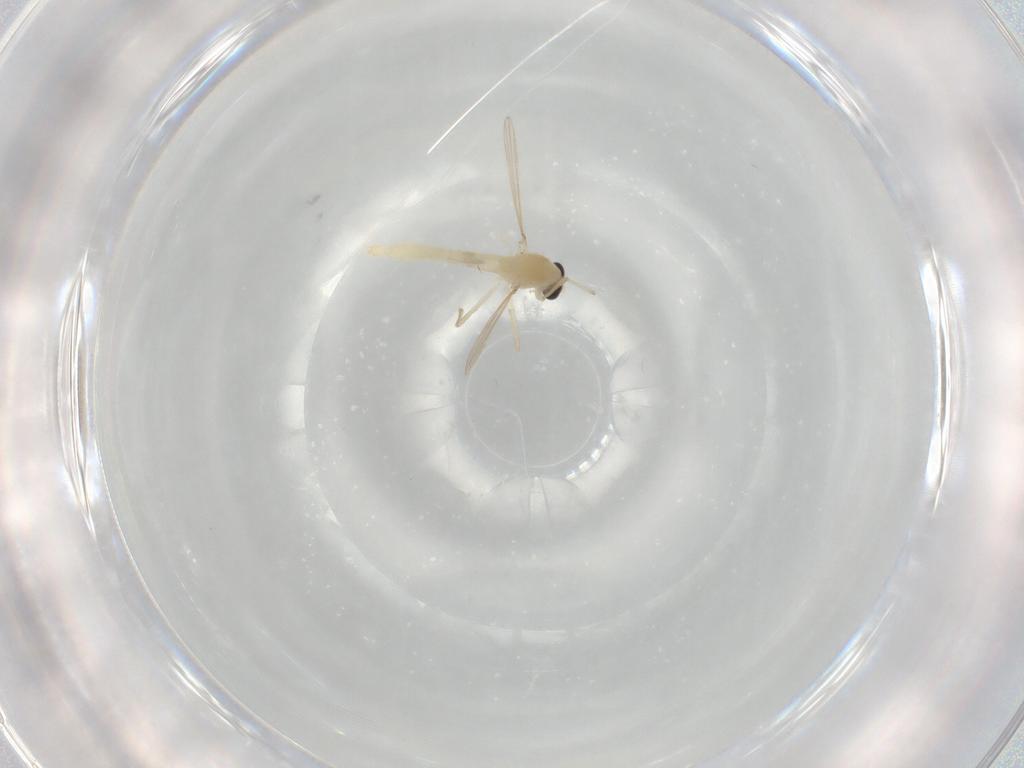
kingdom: Animalia
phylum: Arthropoda
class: Insecta
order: Diptera
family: Chironomidae
